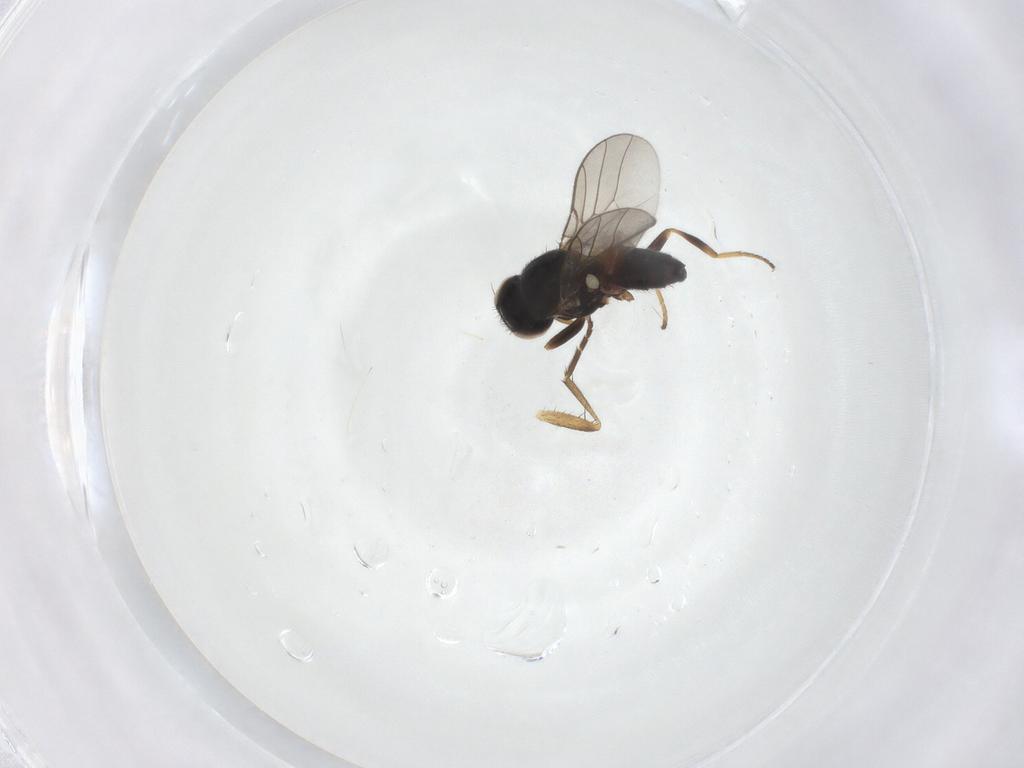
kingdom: Animalia
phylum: Arthropoda
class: Insecta
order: Diptera
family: Chloropidae
